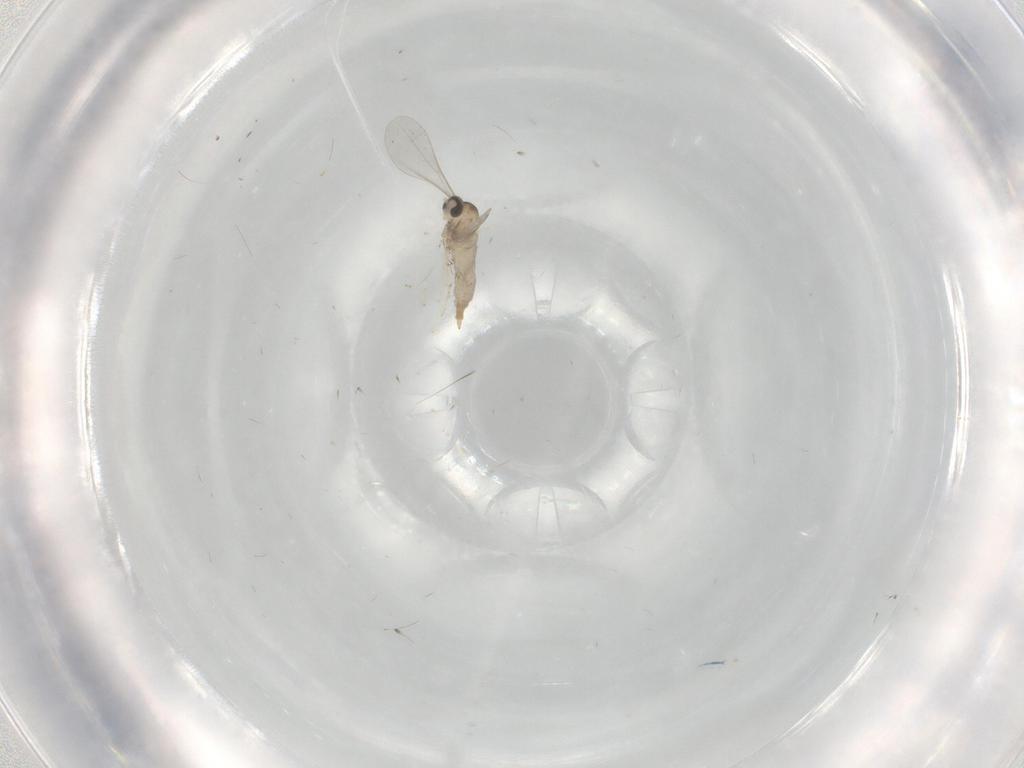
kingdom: Animalia
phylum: Arthropoda
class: Insecta
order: Diptera
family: Cecidomyiidae
